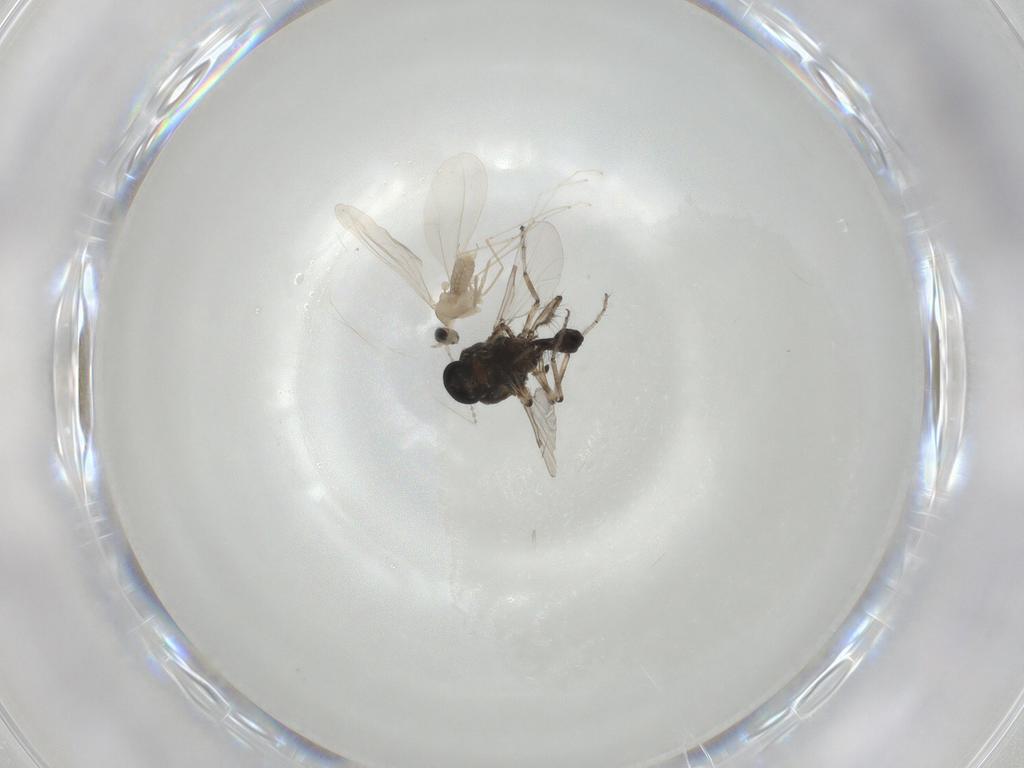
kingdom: Animalia
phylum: Arthropoda
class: Insecta
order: Diptera
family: Ceratopogonidae
